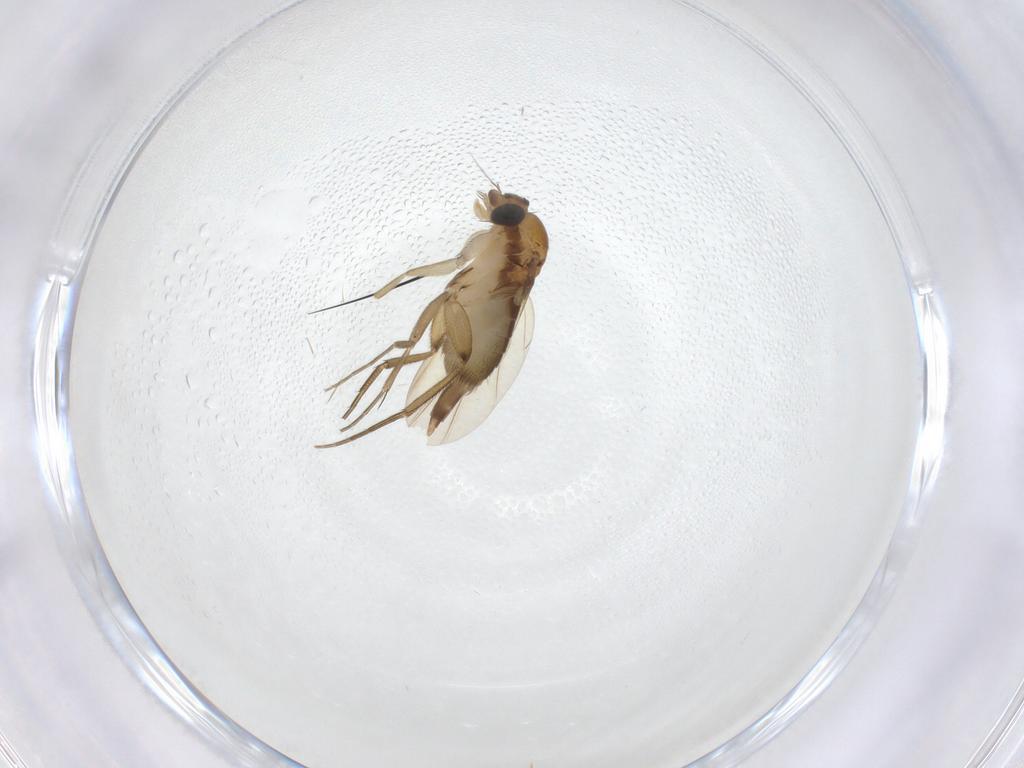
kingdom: Animalia
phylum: Arthropoda
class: Insecta
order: Diptera
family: Phoridae
